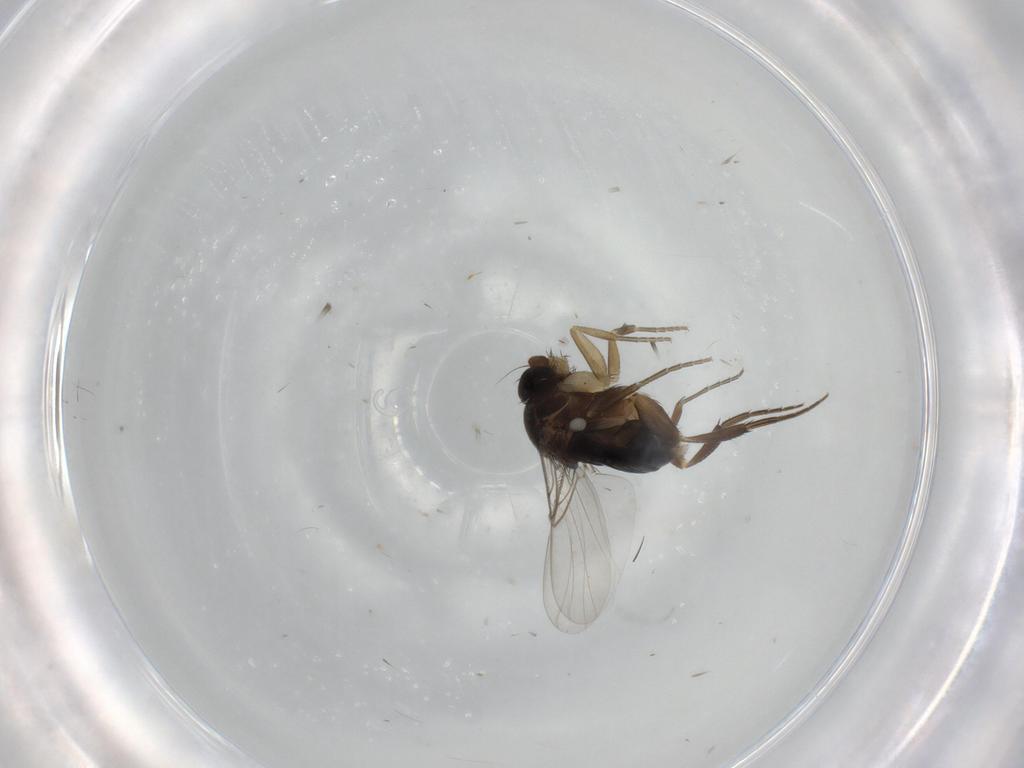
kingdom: Animalia
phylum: Arthropoda
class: Insecta
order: Diptera
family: Phoridae
